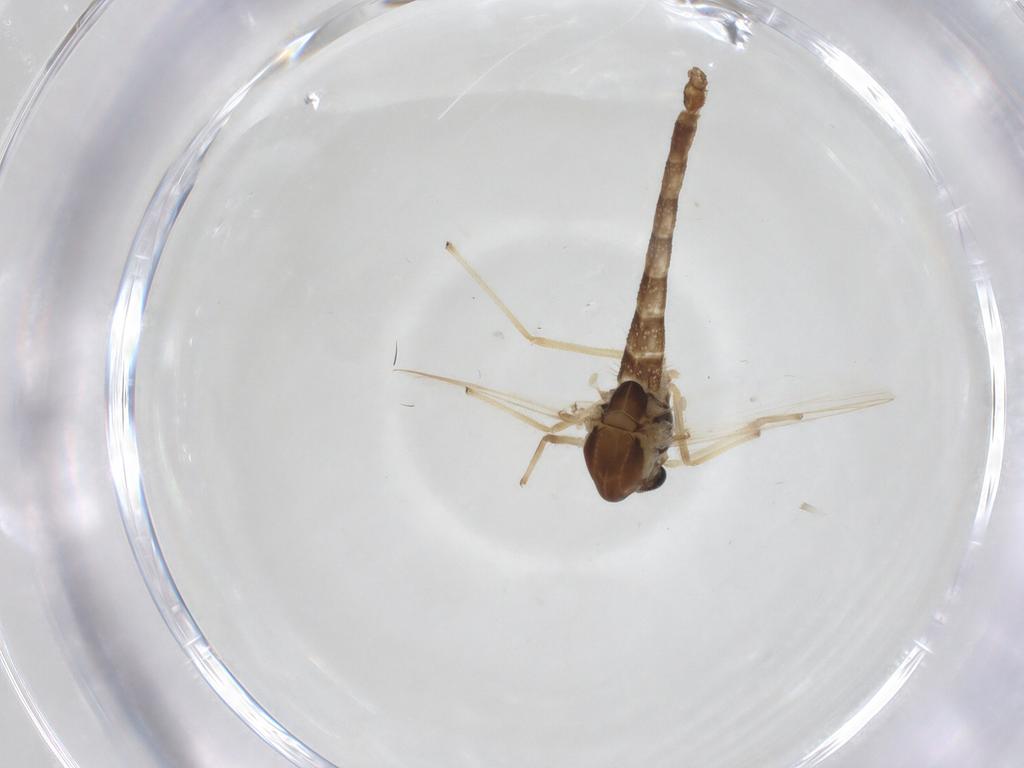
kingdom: Animalia
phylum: Arthropoda
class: Insecta
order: Diptera
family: Chironomidae
